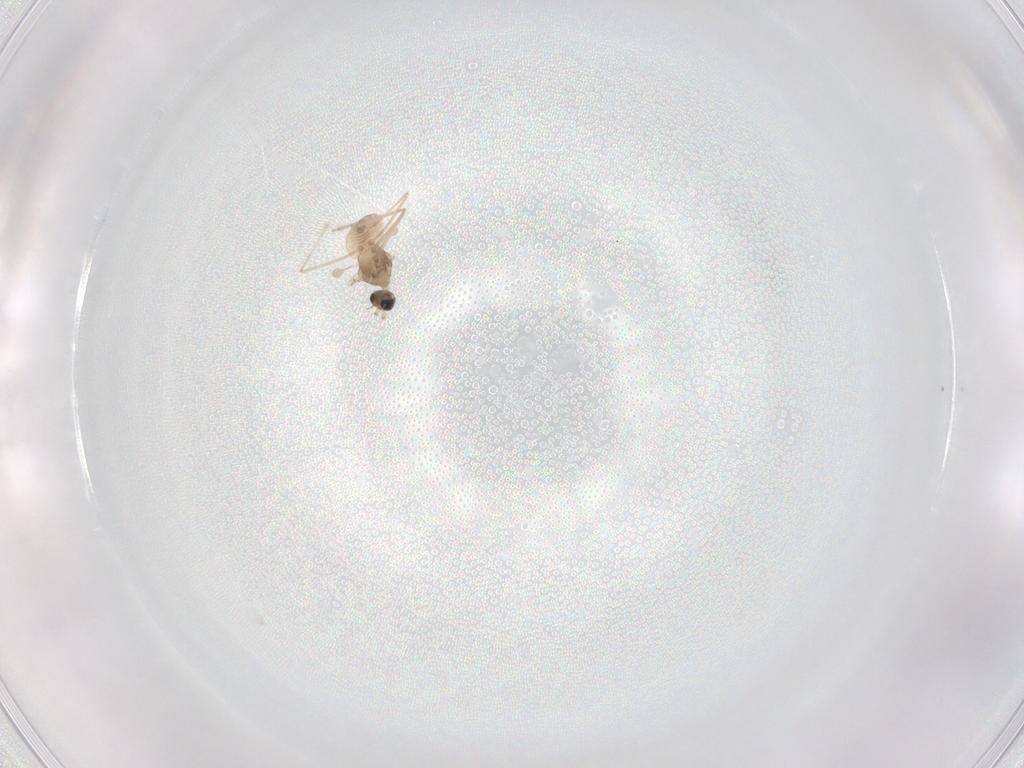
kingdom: Animalia
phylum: Arthropoda
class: Insecta
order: Diptera
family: Cecidomyiidae
